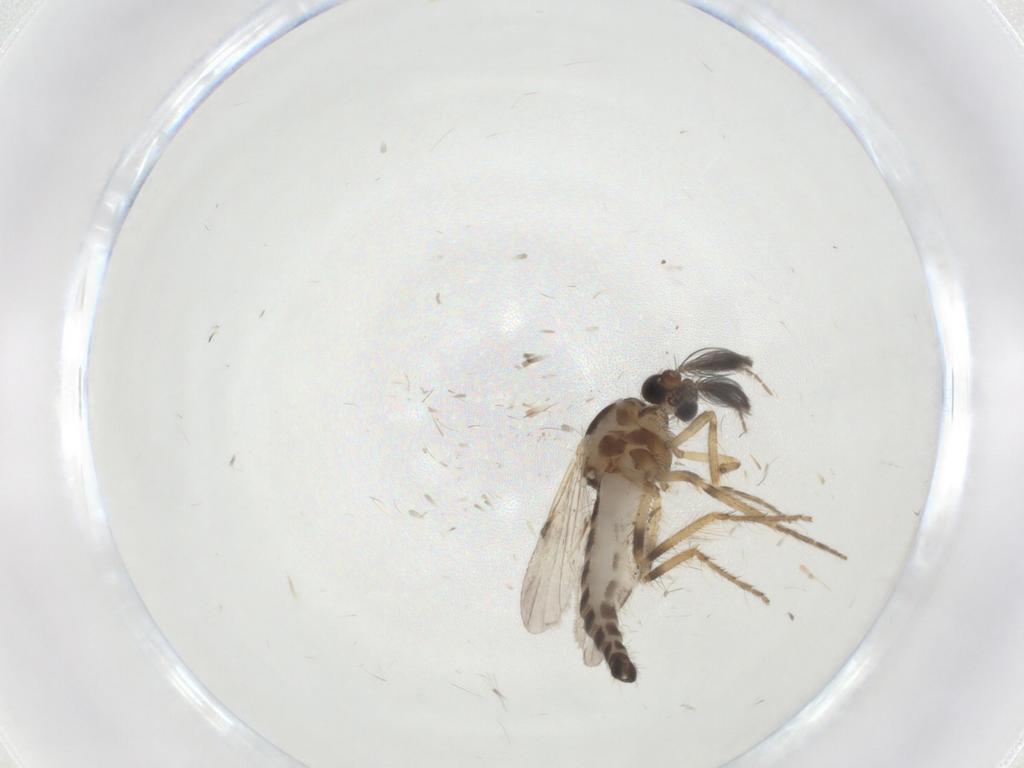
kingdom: Animalia
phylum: Arthropoda
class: Insecta
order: Diptera
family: Ceratopogonidae
